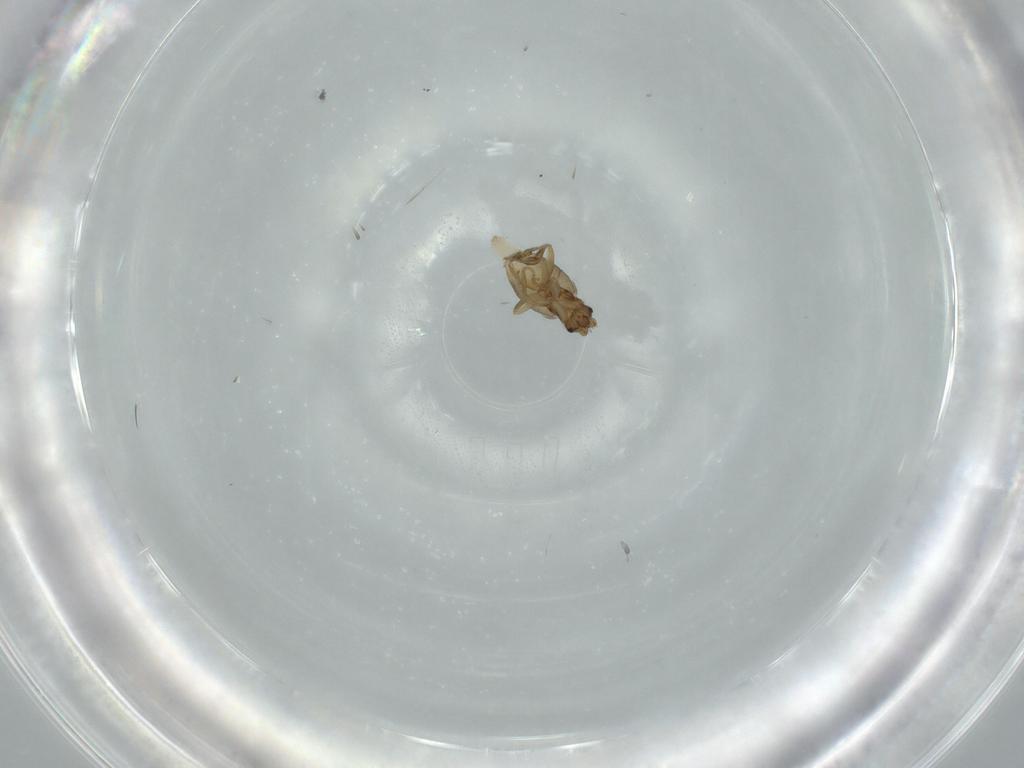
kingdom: Animalia
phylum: Arthropoda
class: Insecta
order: Diptera
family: Phoridae
